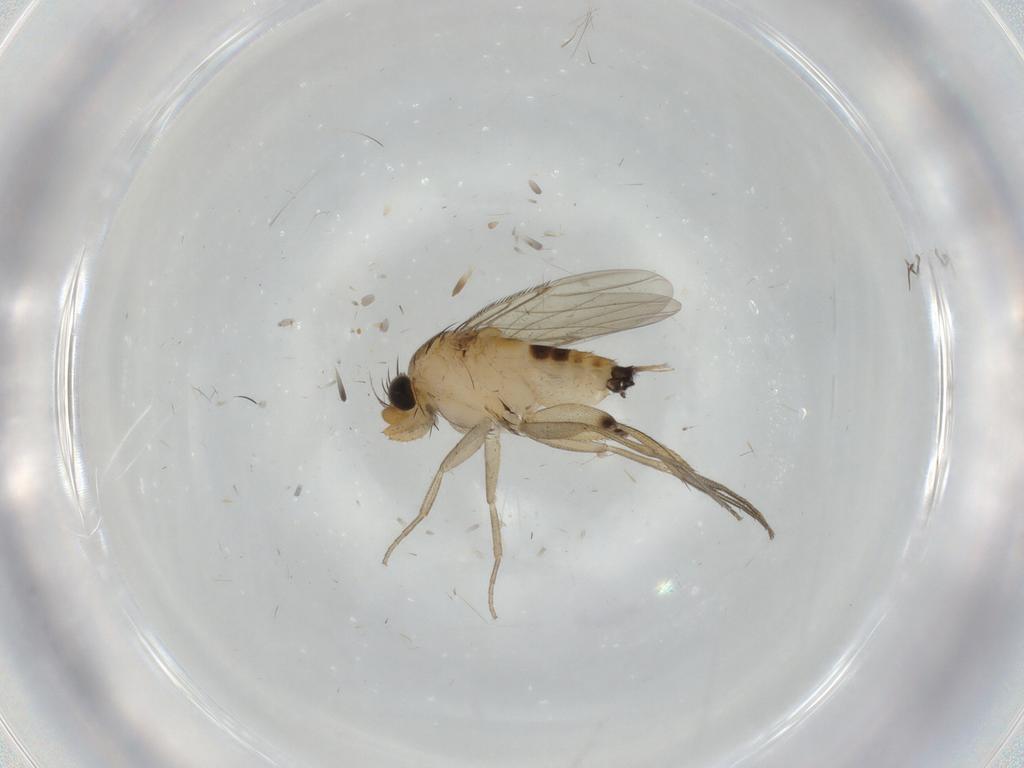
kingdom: Animalia
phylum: Arthropoda
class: Insecta
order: Diptera
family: Phoridae
